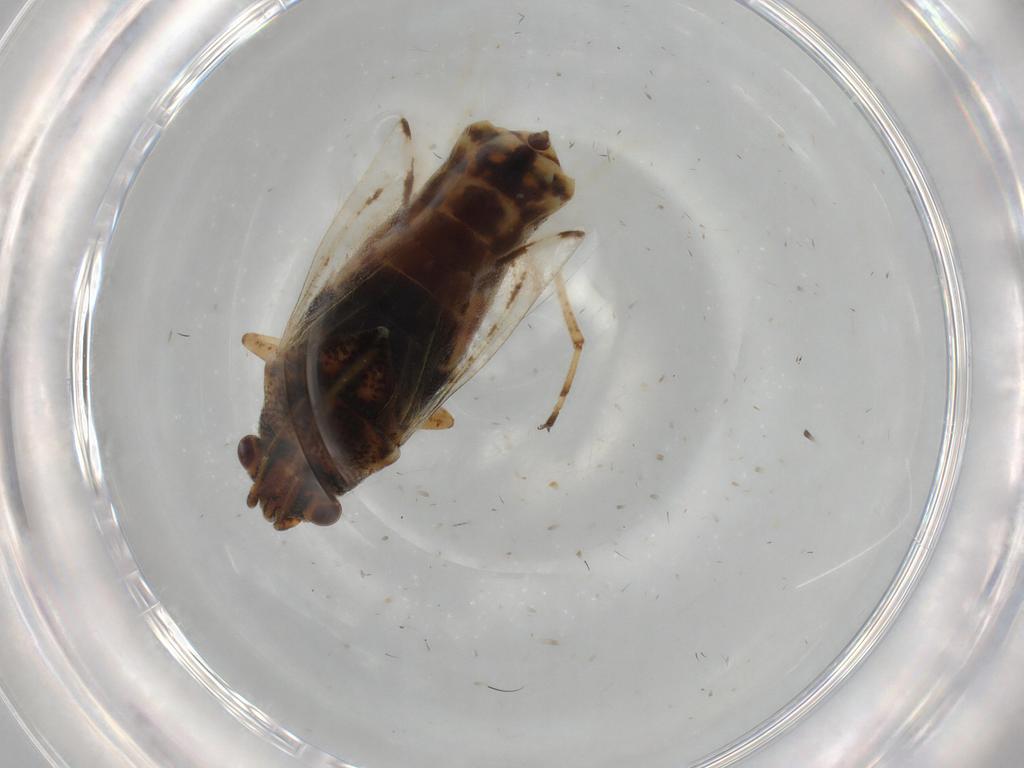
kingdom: Animalia
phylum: Arthropoda
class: Insecta
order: Hemiptera
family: Lygaeidae
